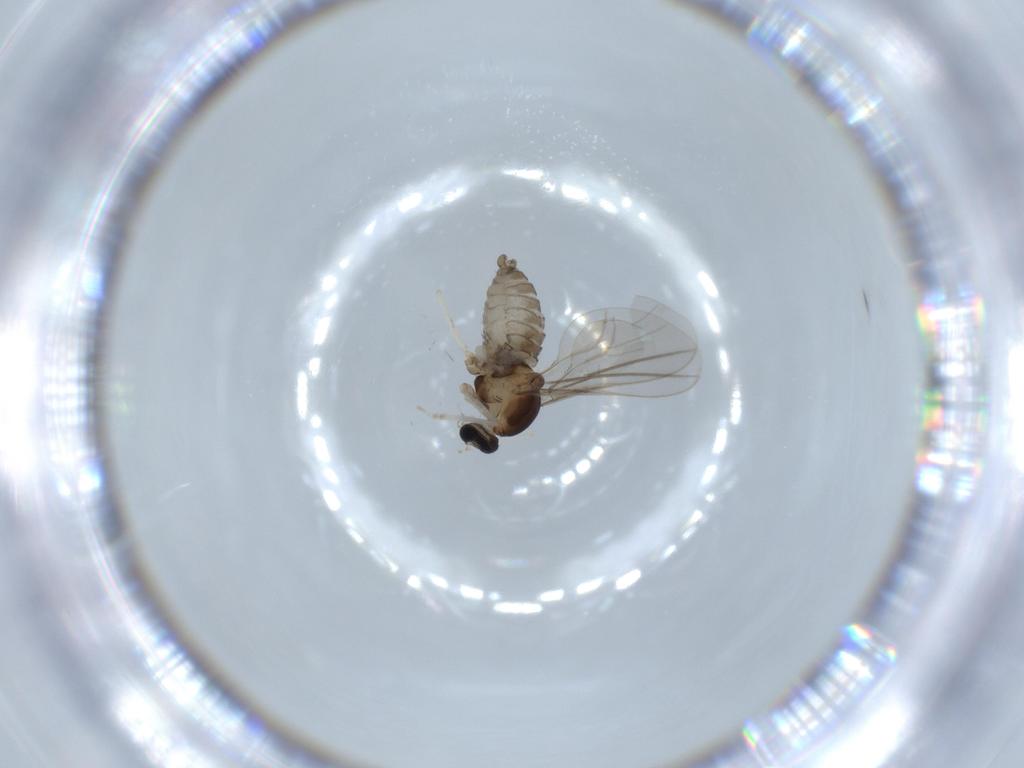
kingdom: Animalia
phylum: Arthropoda
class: Insecta
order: Diptera
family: Cecidomyiidae
